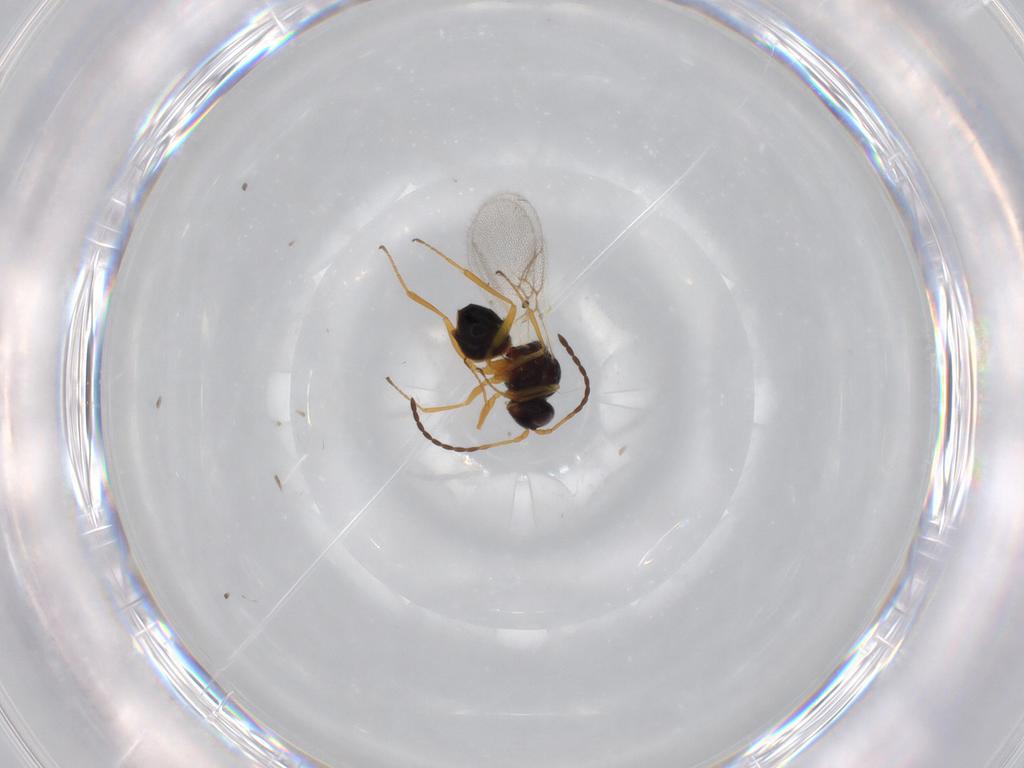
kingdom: Animalia
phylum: Arthropoda
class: Insecta
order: Hymenoptera
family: Figitidae
